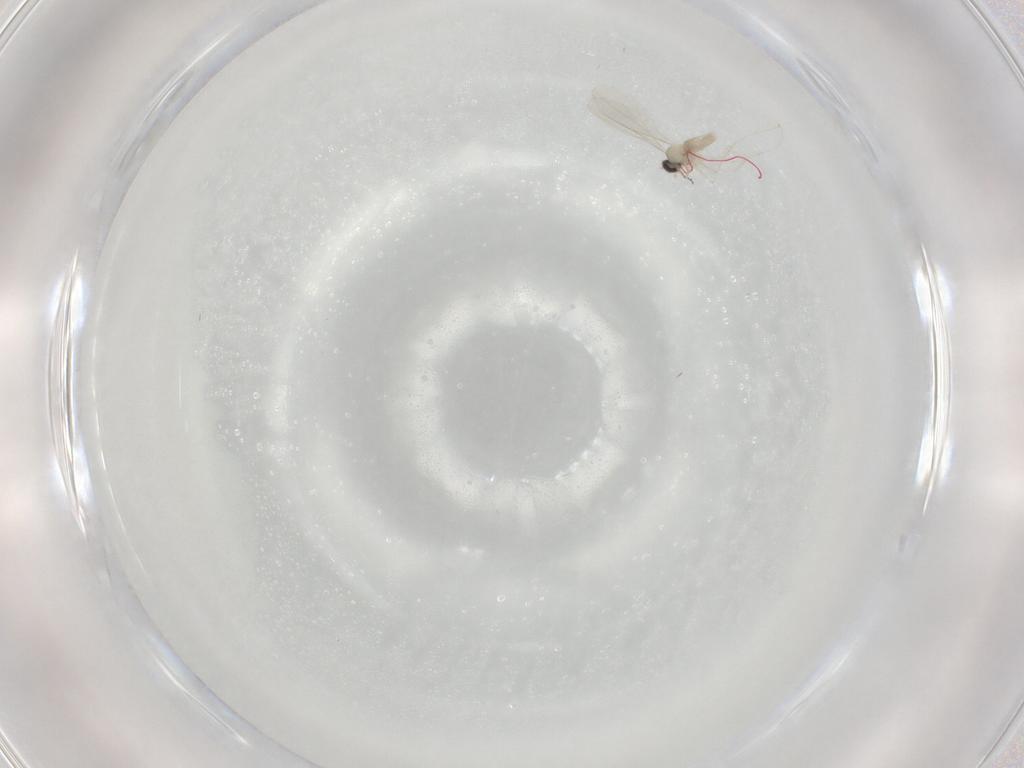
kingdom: Animalia
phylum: Arthropoda
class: Insecta
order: Diptera
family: Cecidomyiidae
